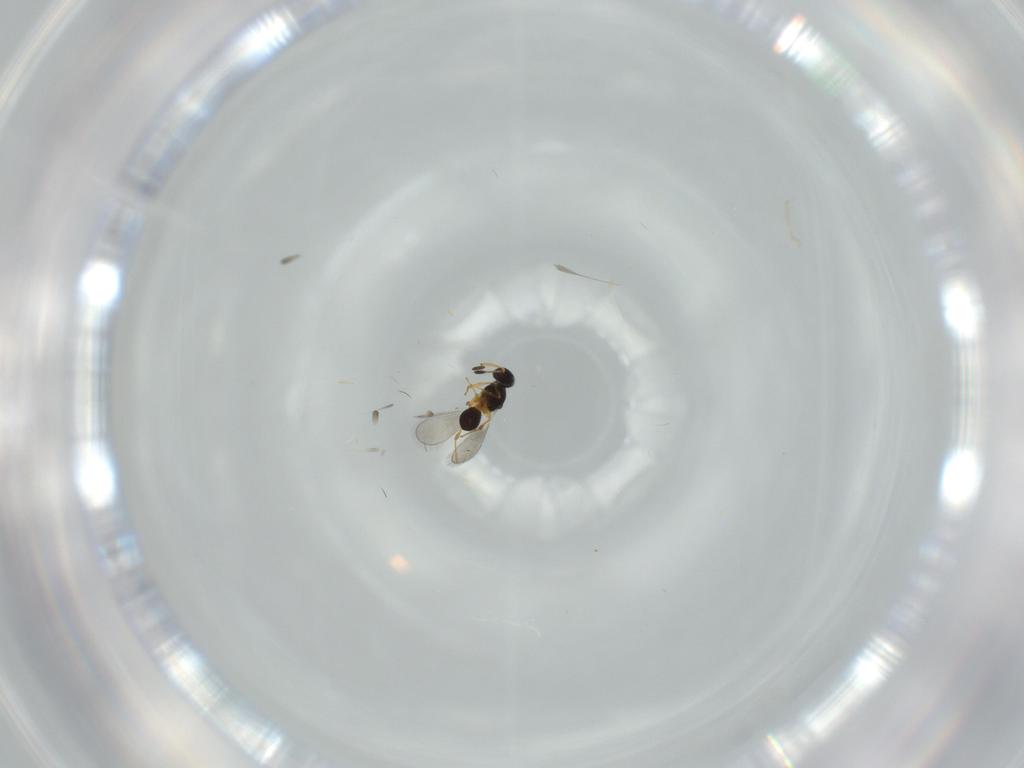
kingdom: Animalia
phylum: Arthropoda
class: Insecta
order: Hymenoptera
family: Platygastridae
